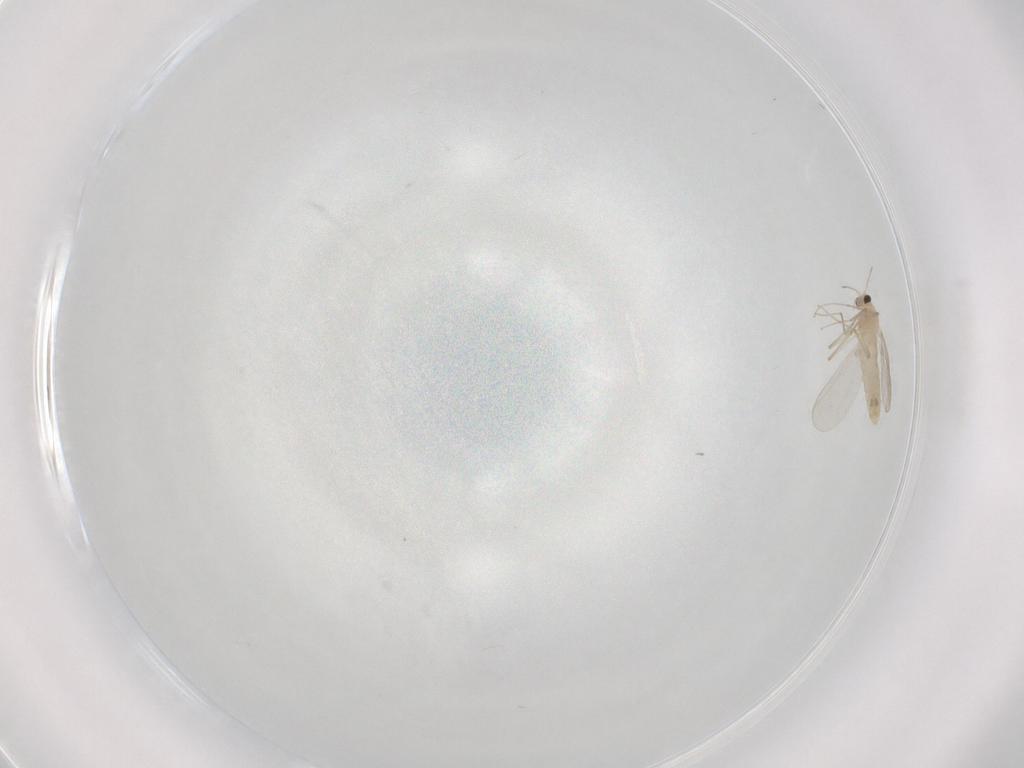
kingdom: Animalia
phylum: Arthropoda
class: Insecta
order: Diptera
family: Chironomidae
